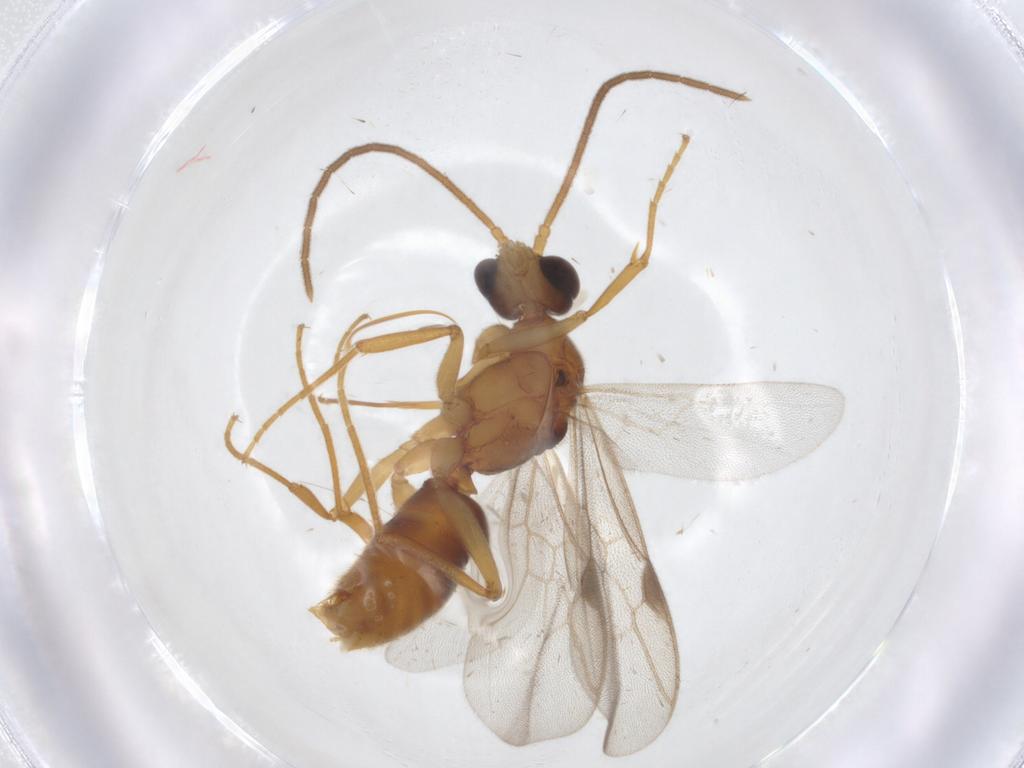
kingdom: Animalia
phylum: Arthropoda
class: Insecta
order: Hymenoptera
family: Formicidae
